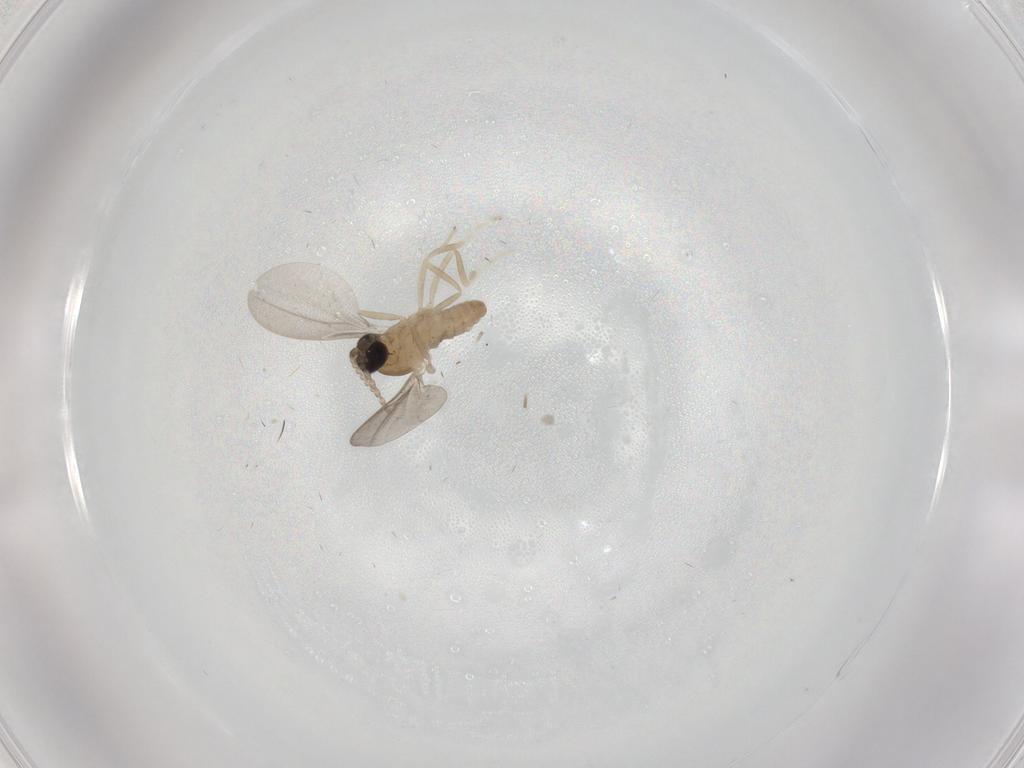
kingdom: Animalia
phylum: Arthropoda
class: Insecta
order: Diptera
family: Cecidomyiidae
